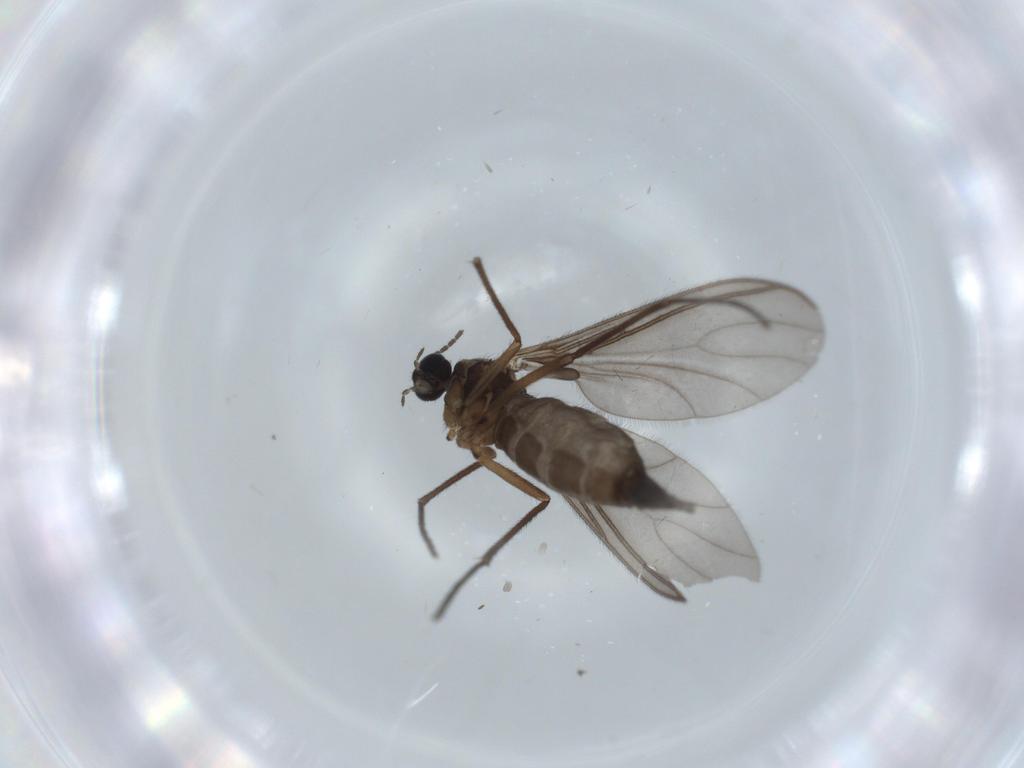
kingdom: Animalia
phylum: Arthropoda
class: Insecta
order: Diptera
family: Sciaridae
